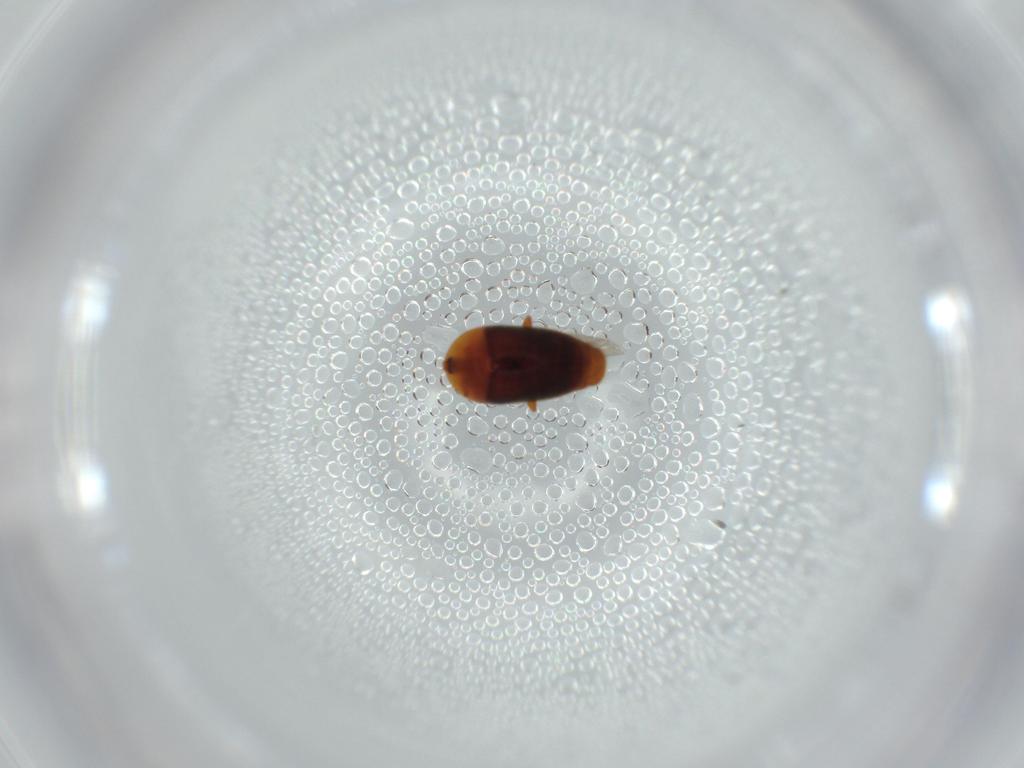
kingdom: Animalia
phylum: Arthropoda
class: Insecta
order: Coleoptera
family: Corylophidae
